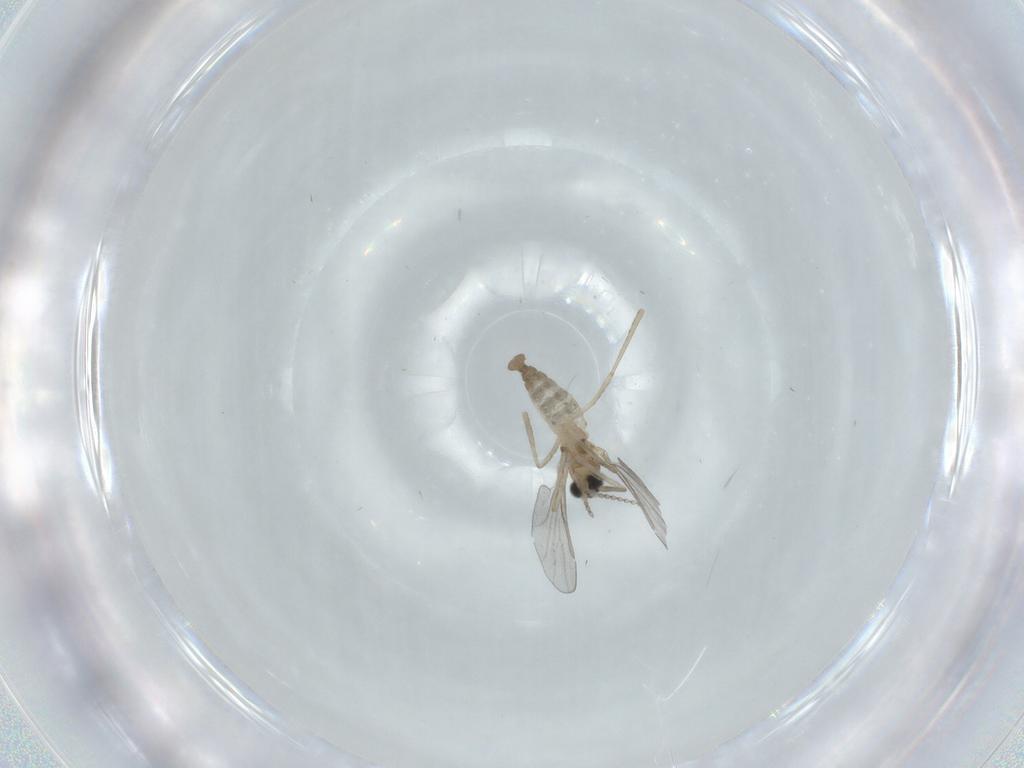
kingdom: Animalia
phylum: Arthropoda
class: Insecta
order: Diptera
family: Cecidomyiidae
